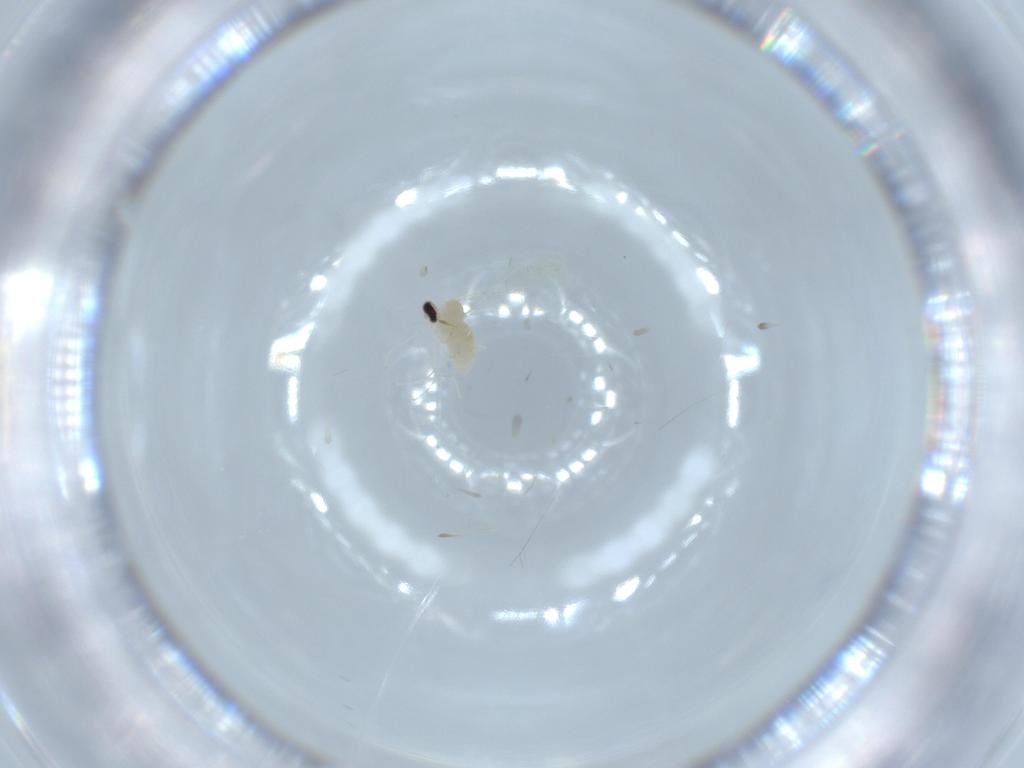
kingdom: Animalia
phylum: Arthropoda
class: Insecta
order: Diptera
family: Cecidomyiidae
